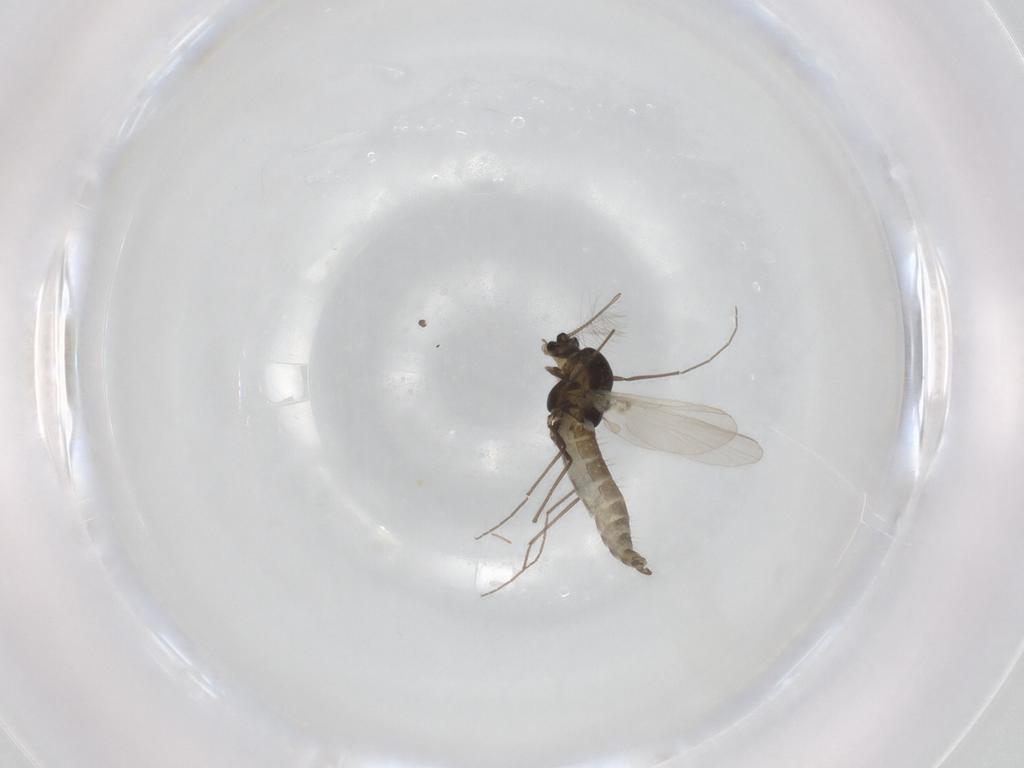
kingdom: Animalia
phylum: Arthropoda
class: Insecta
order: Diptera
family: Chironomidae
